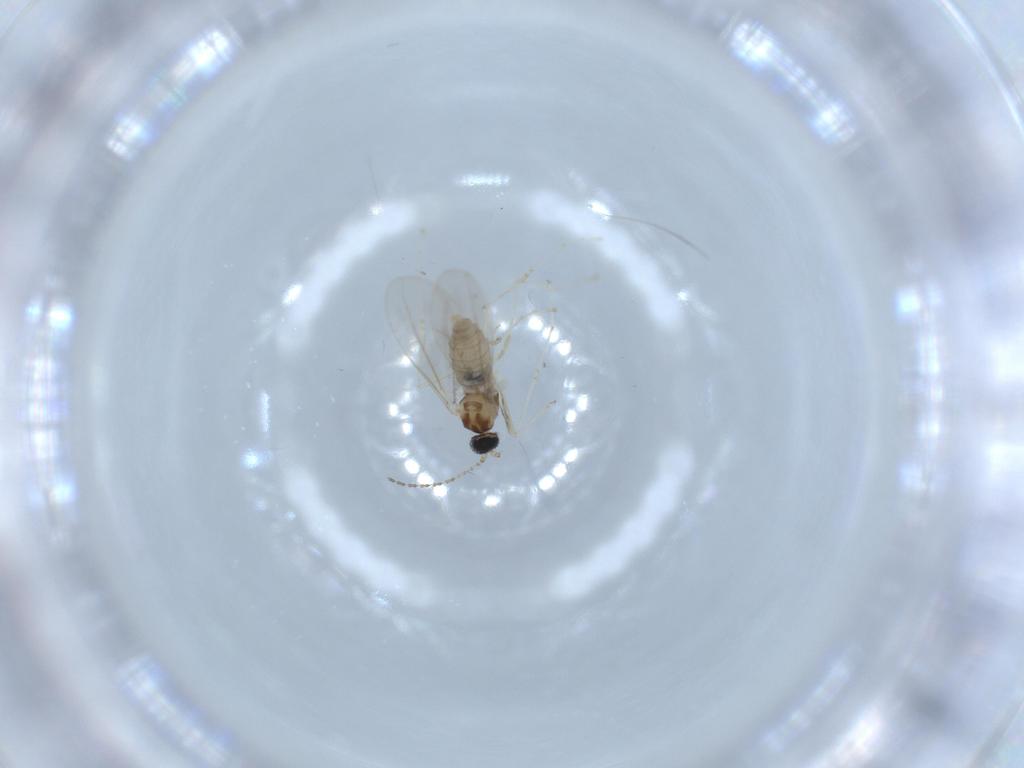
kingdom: Animalia
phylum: Arthropoda
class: Insecta
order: Diptera
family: Cecidomyiidae
